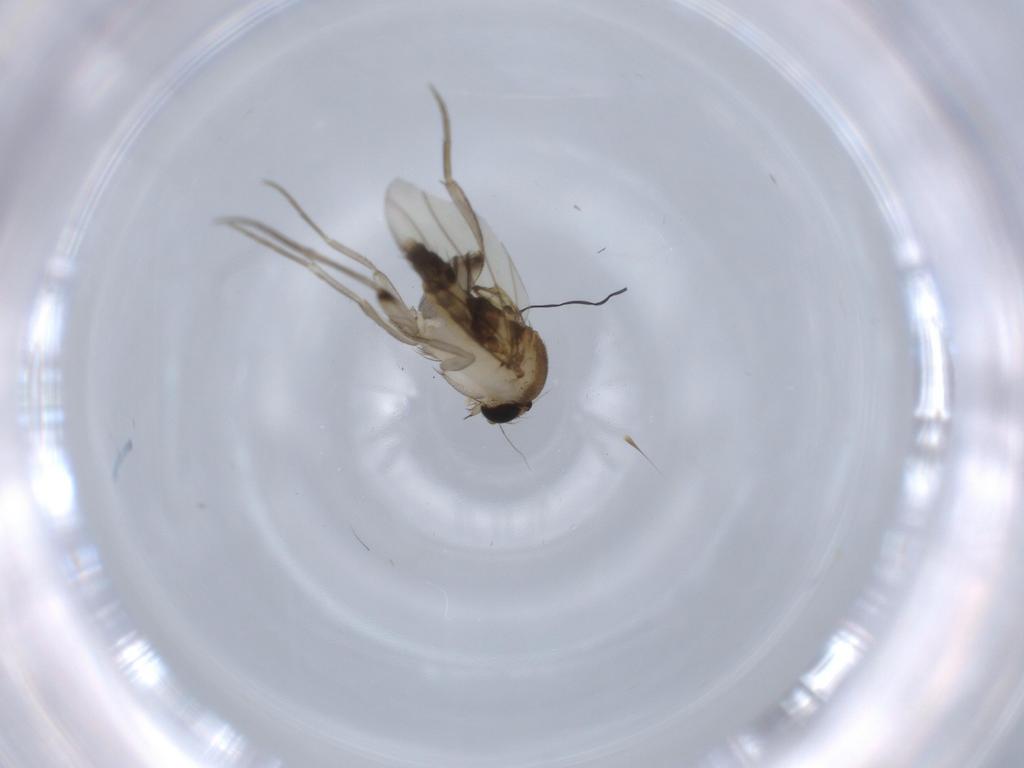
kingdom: Animalia
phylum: Arthropoda
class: Insecta
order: Diptera
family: Phoridae
